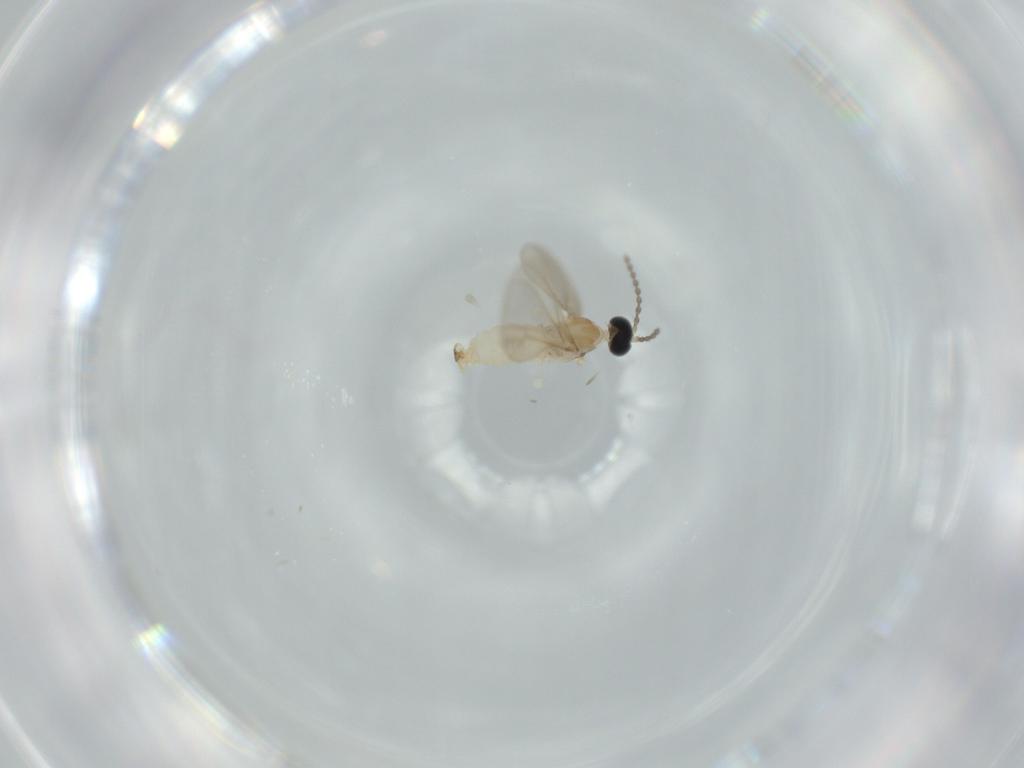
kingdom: Animalia
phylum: Arthropoda
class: Insecta
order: Diptera
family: Cecidomyiidae
